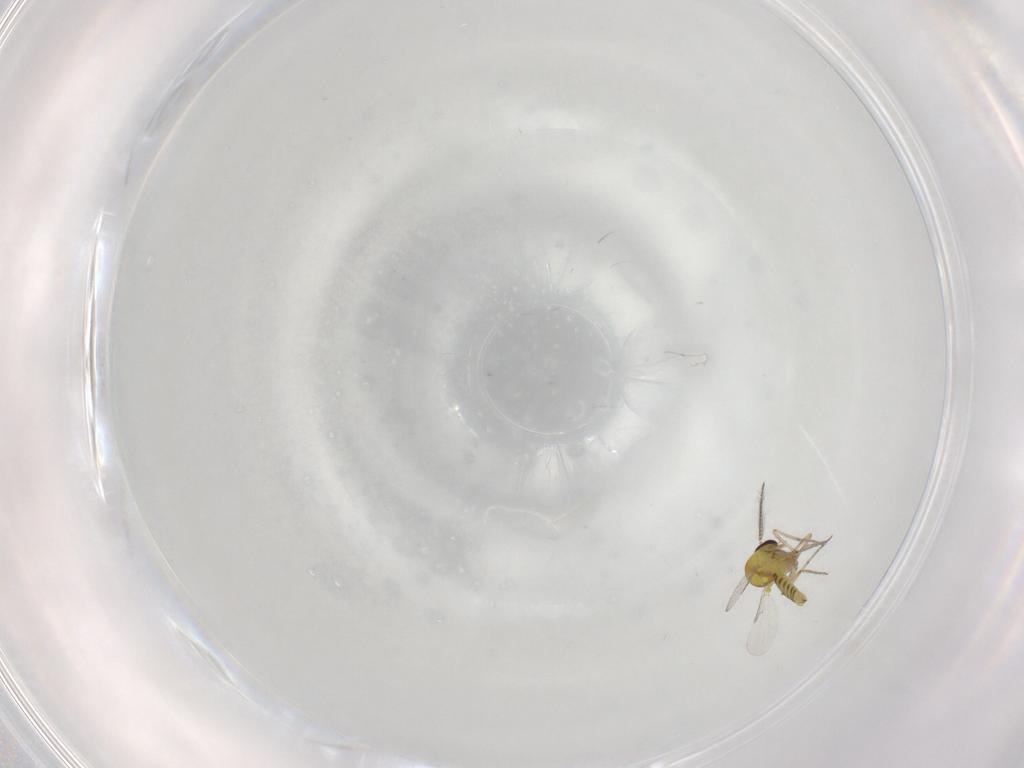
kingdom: Animalia
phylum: Arthropoda
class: Insecta
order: Diptera
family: Ceratopogonidae
